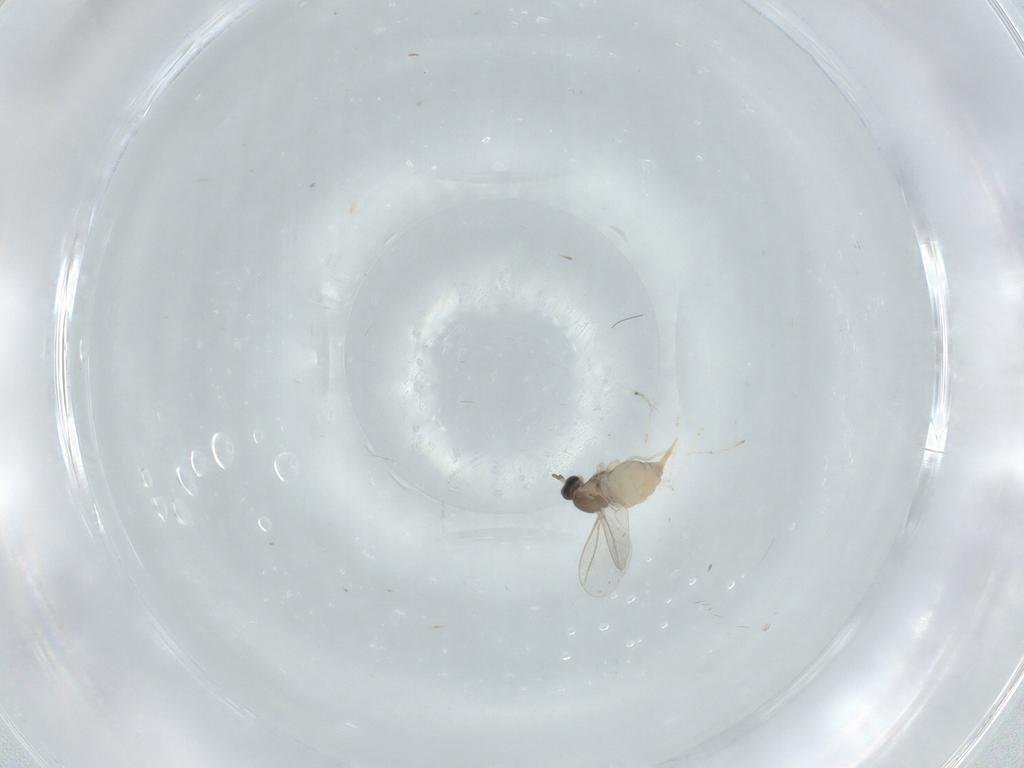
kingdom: Animalia
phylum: Arthropoda
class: Insecta
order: Diptera
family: Cecidomyiidae
